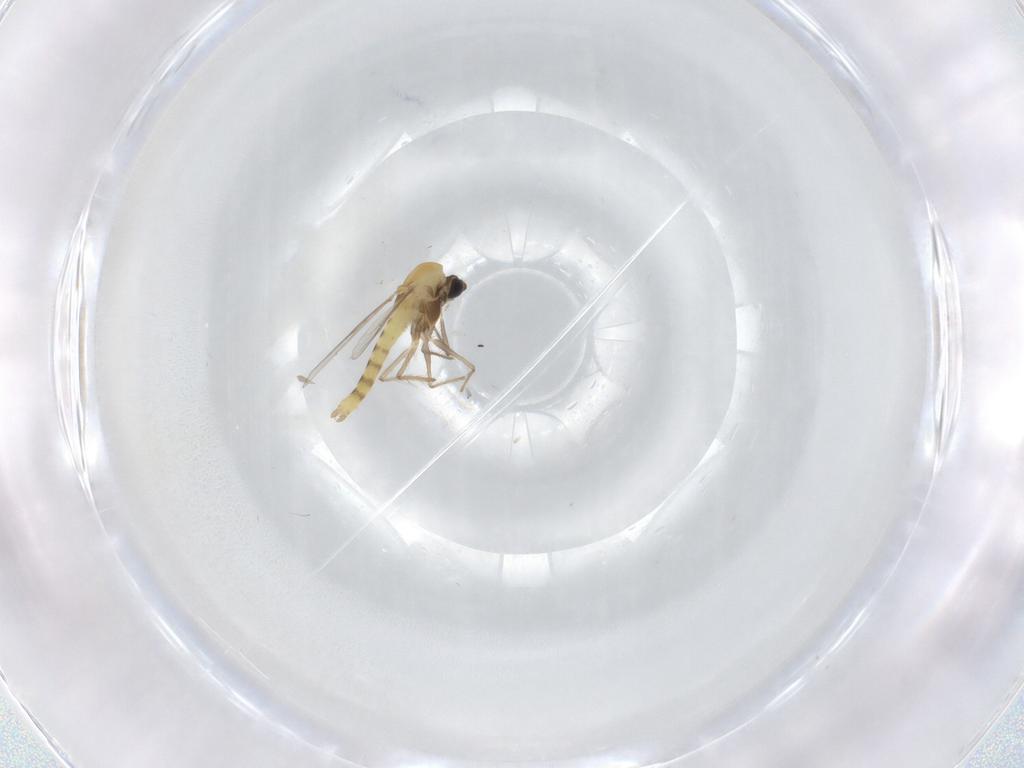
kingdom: Animalia
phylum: Arthropoda
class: Insecta
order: Diptera
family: Chironomidae
